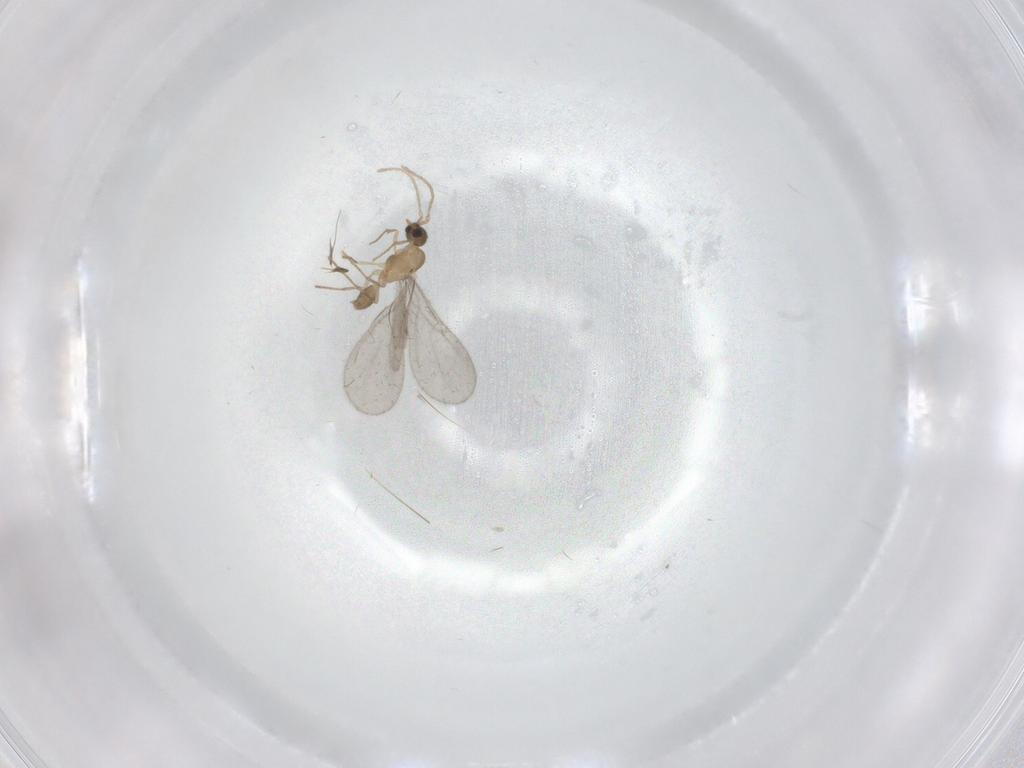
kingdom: Animalia
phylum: Arthropoda
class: Insecta
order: Hymenoptera
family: Formicidae
